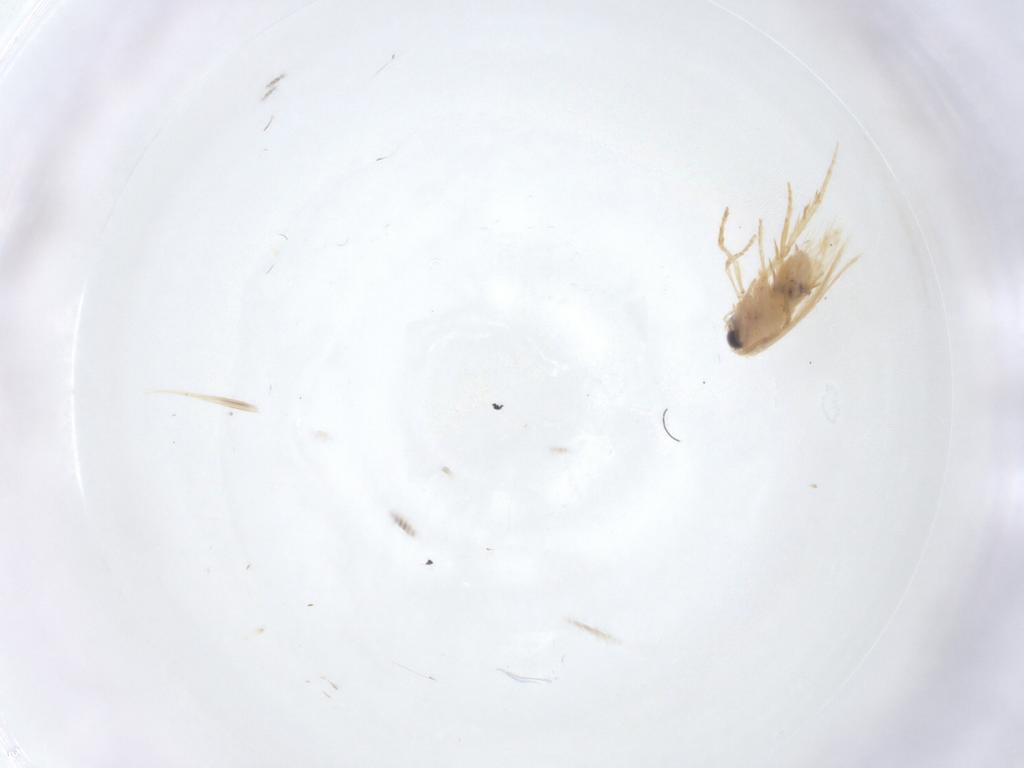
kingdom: Animalia
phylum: Arthropoda
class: Insecta
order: Lepidoptera
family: Nepticulidae
